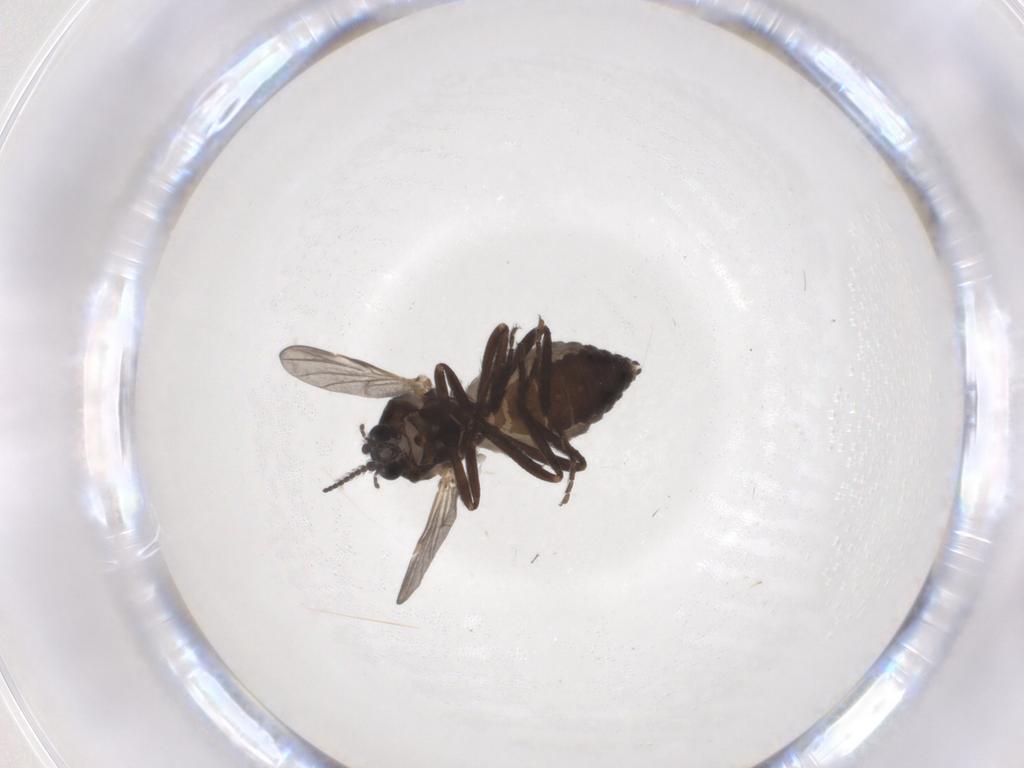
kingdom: Animalia
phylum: Arthropoda
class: Insecta
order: Diptera
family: Ceratopogonidae
